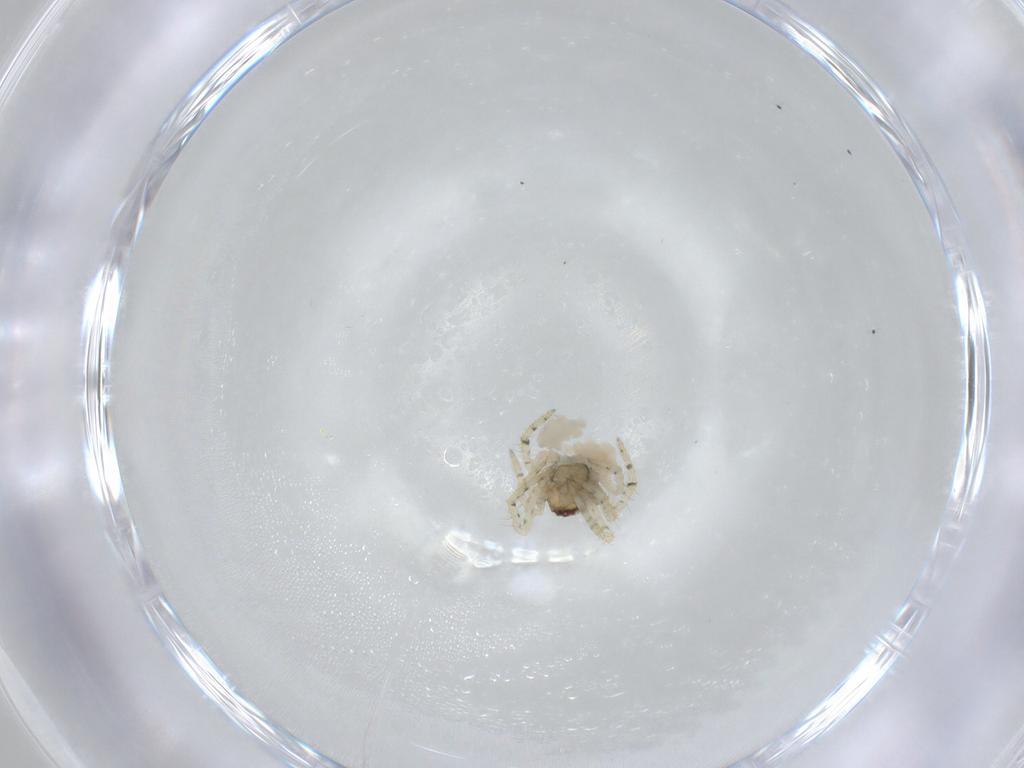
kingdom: Animalia
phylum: Arthropoda
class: Arachnida
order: Araneae
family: Theridiidae
